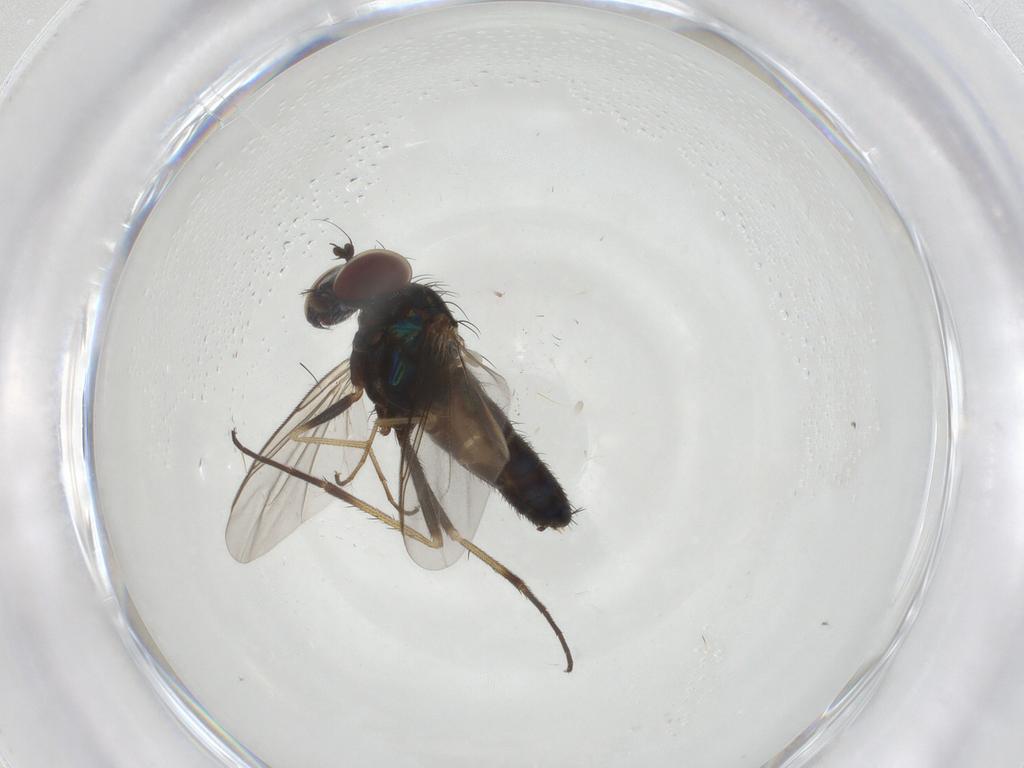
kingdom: Animalia
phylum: Arthropoda
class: Insecta
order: Diptera
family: Dolichopodidae
